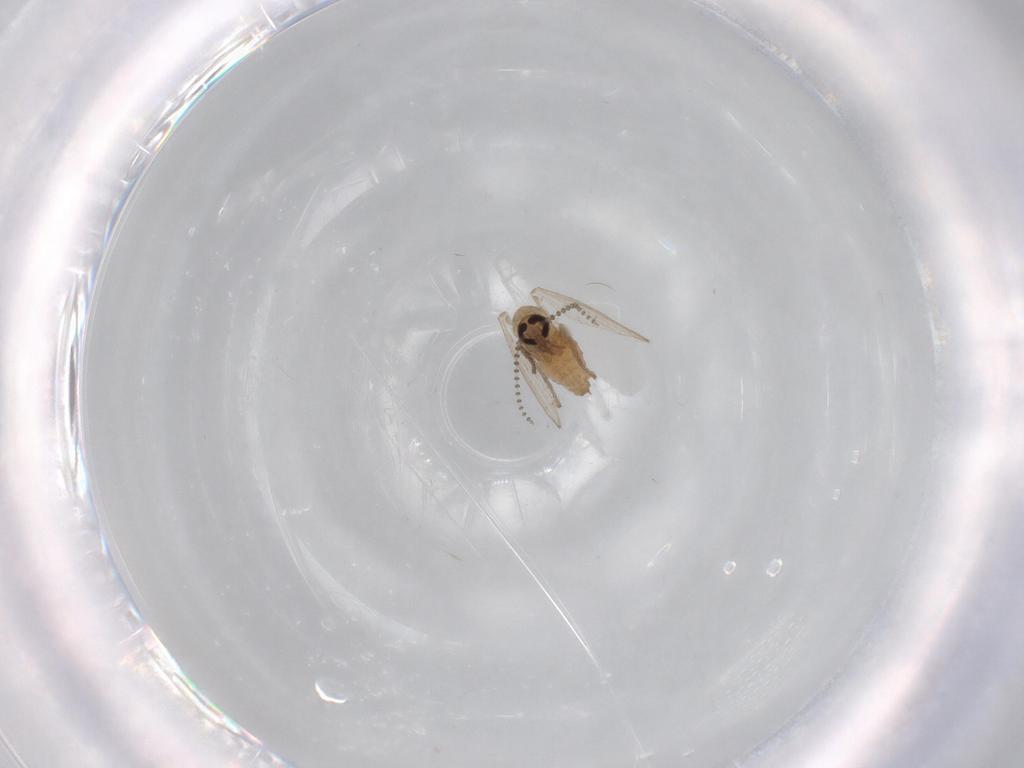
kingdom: Animalia
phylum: Arthropoda
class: Insecta
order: Diptera
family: Psychodidae
